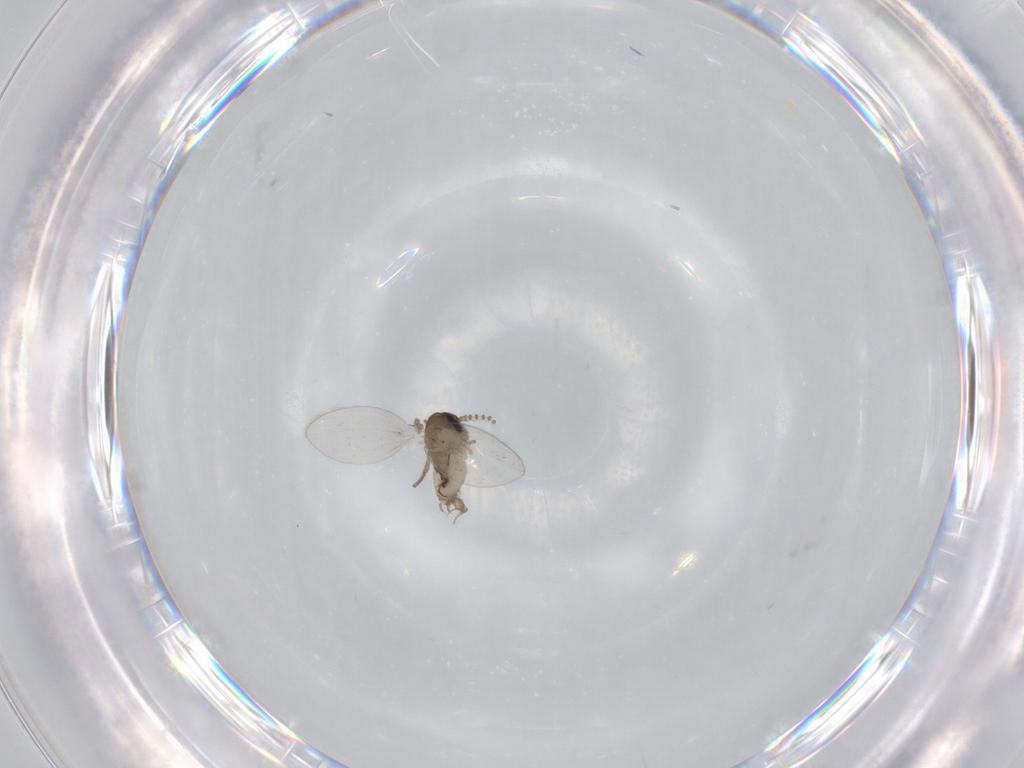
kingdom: Animalia
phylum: Arthropoda
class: Insecta
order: Diptera
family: Psychodidae
